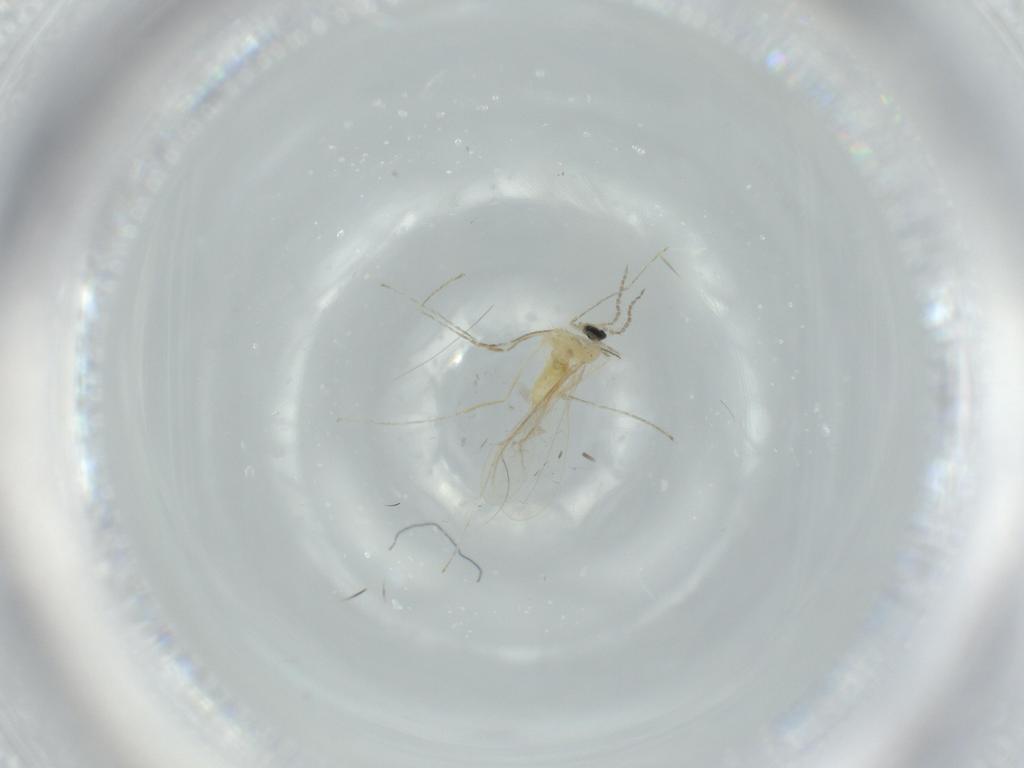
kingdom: Animalia
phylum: Arthropoda
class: Insecta
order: Diptera
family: Cecidomyiidae
